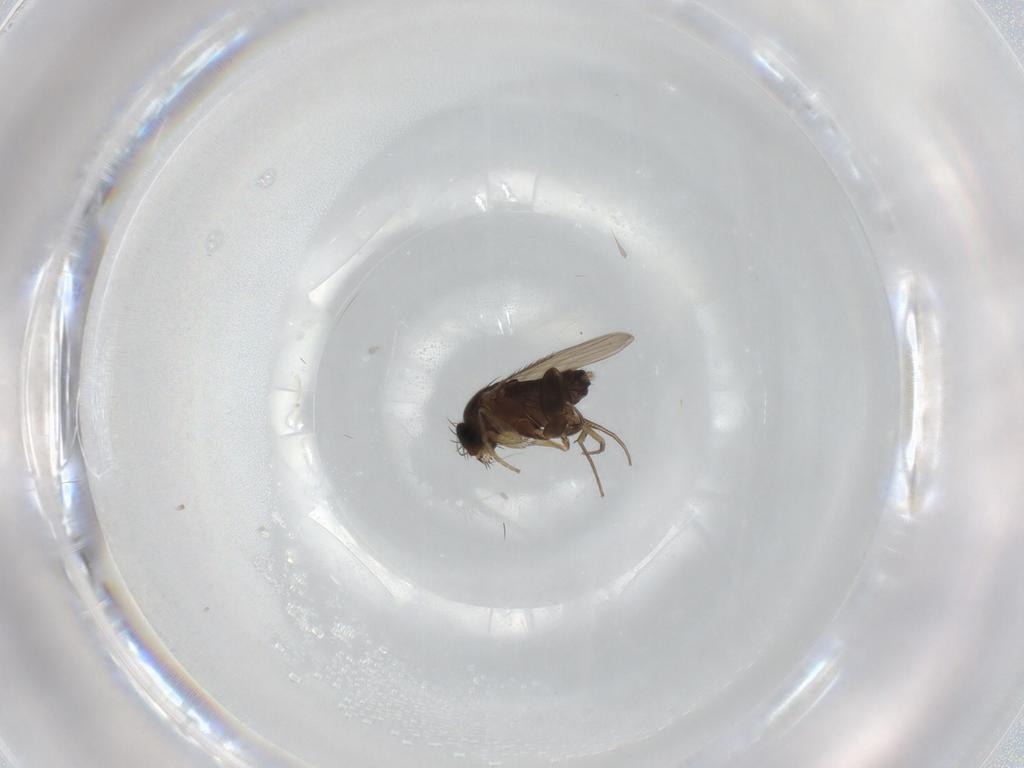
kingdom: Animalia
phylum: Arthropoda
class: Insecta
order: Diptera
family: Phoridae
